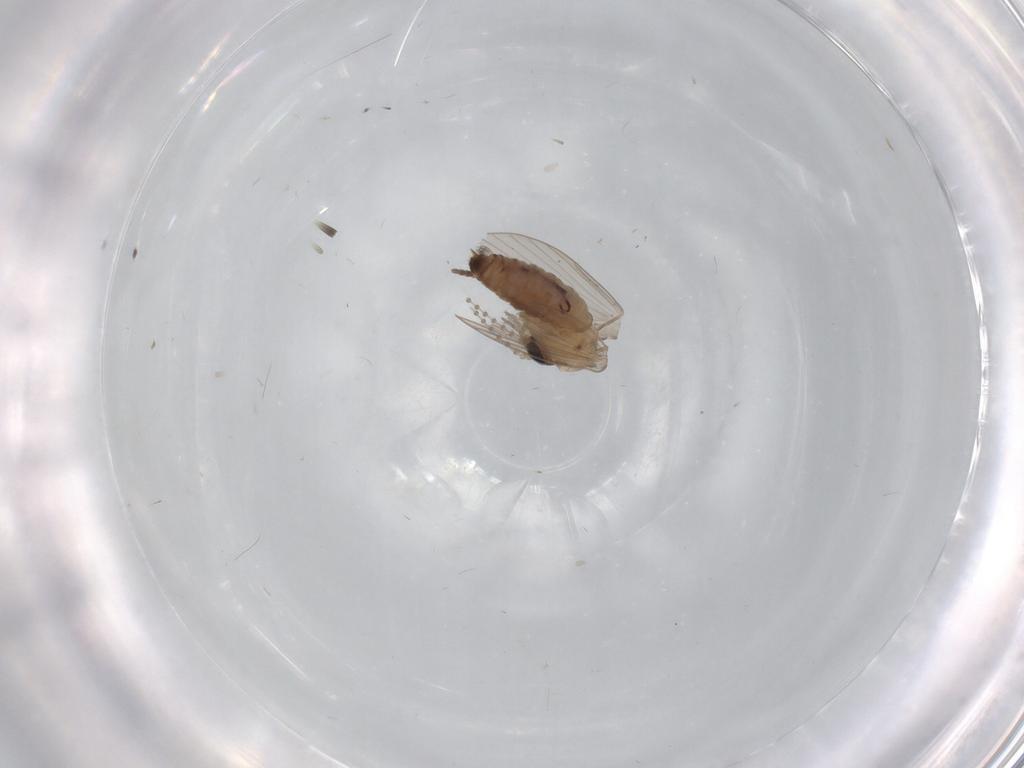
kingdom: Animalia
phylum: Arthropoda
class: Insecta
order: Diptera
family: Psychodidae
